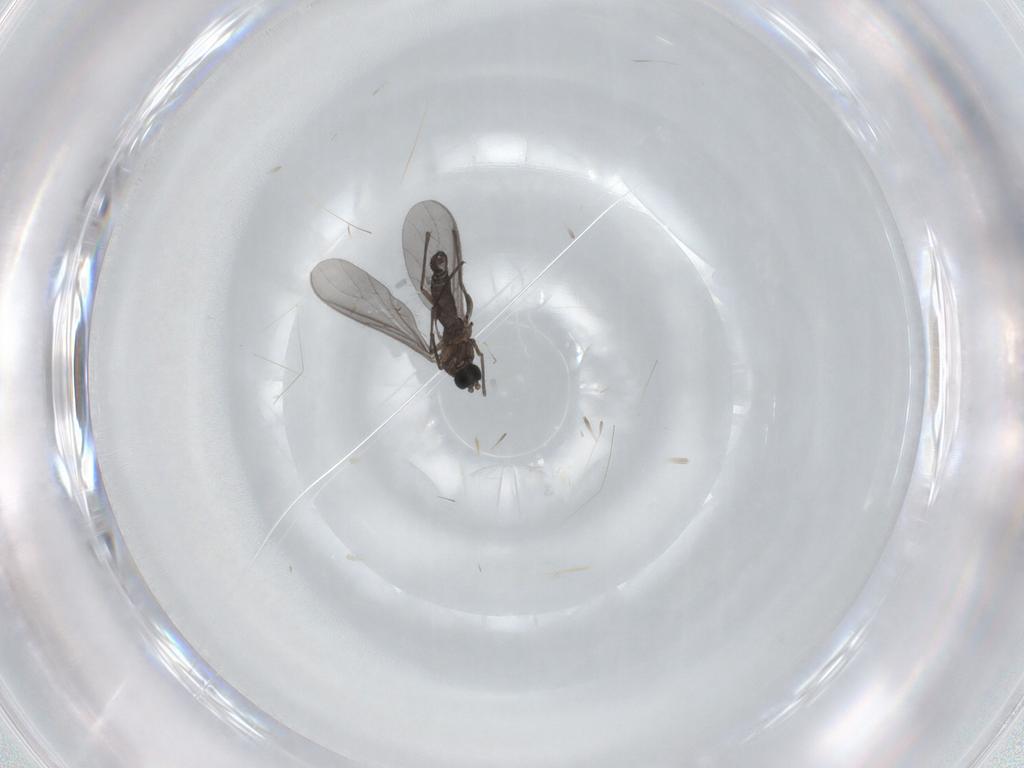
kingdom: Animalia
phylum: Arthropoda
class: Insecta
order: Diptera
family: Sciaridae
